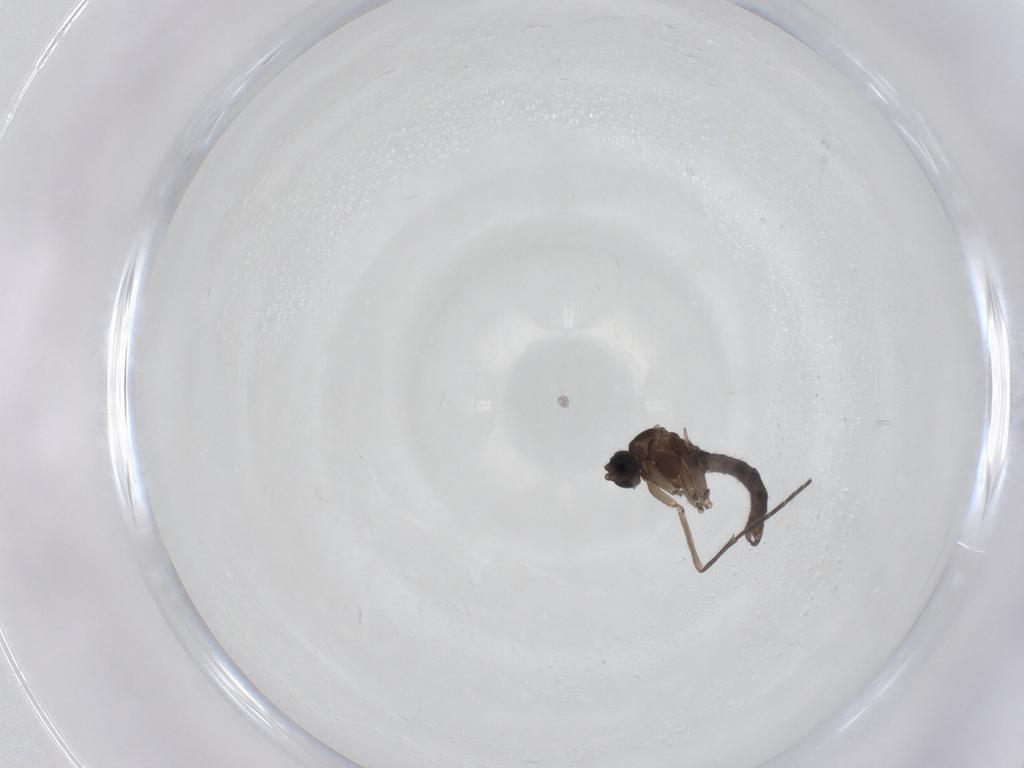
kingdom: Animalia
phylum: Arthropoda
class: Insecta
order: Diptera
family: Sciaridae
